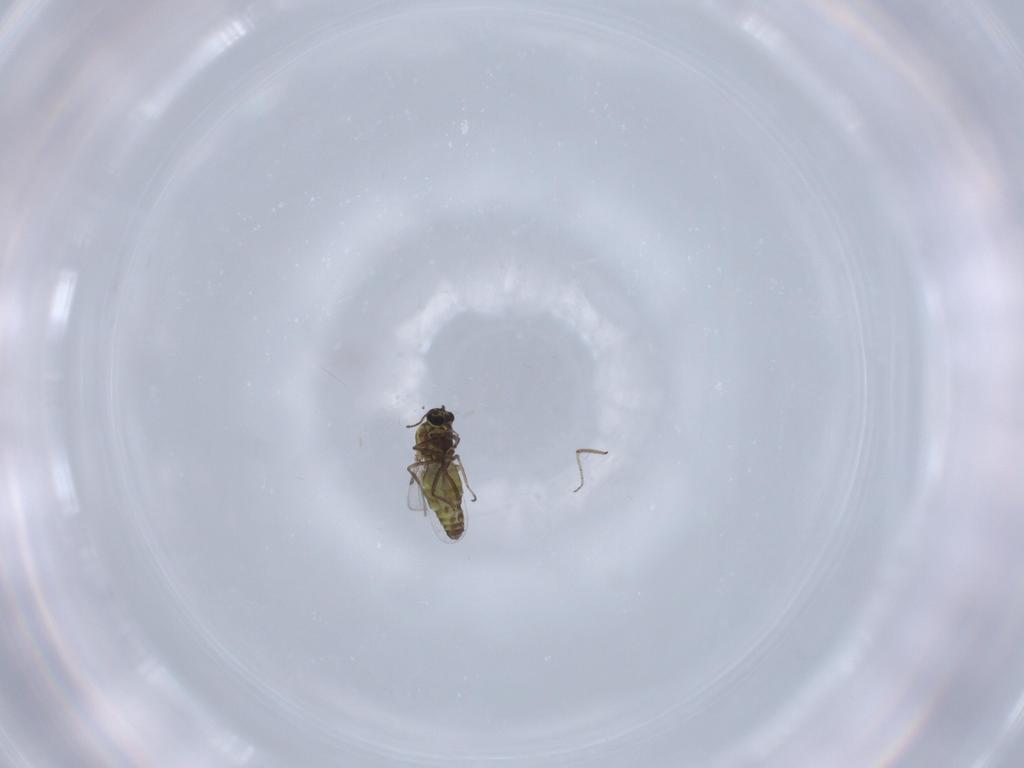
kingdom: Animalia
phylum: Arthropoda
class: Insecta
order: Diptera
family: Ceratopogonidae
